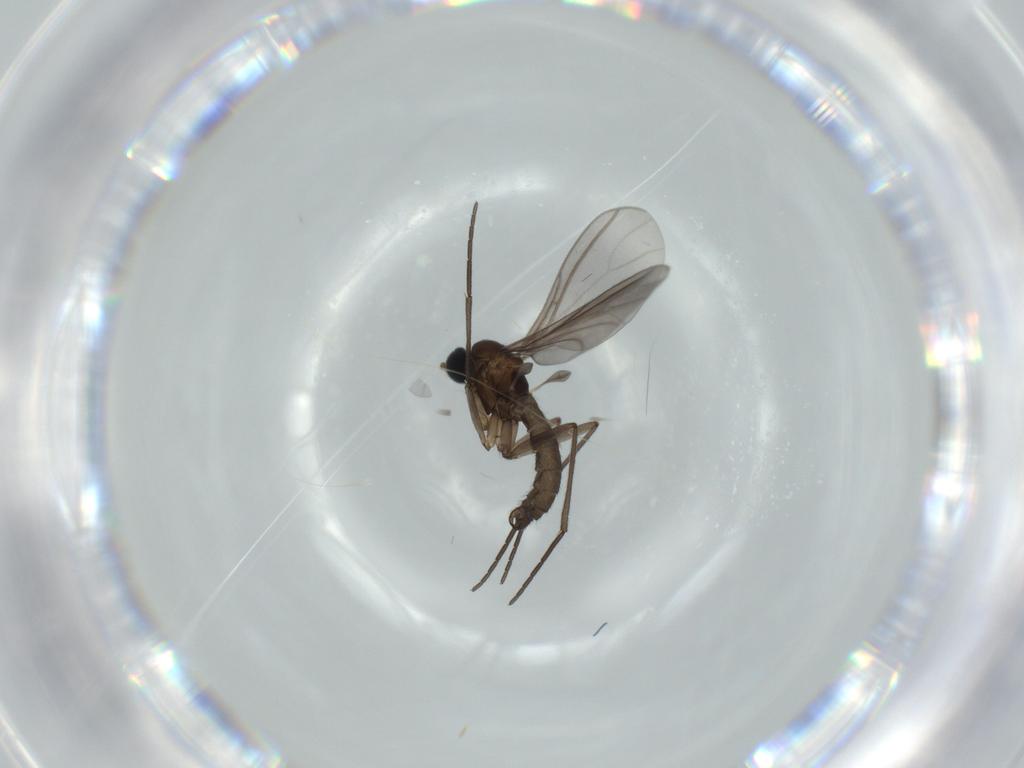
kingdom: Animalia
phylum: Arthropoda
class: Insecta
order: Diptera
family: Sciaridae
